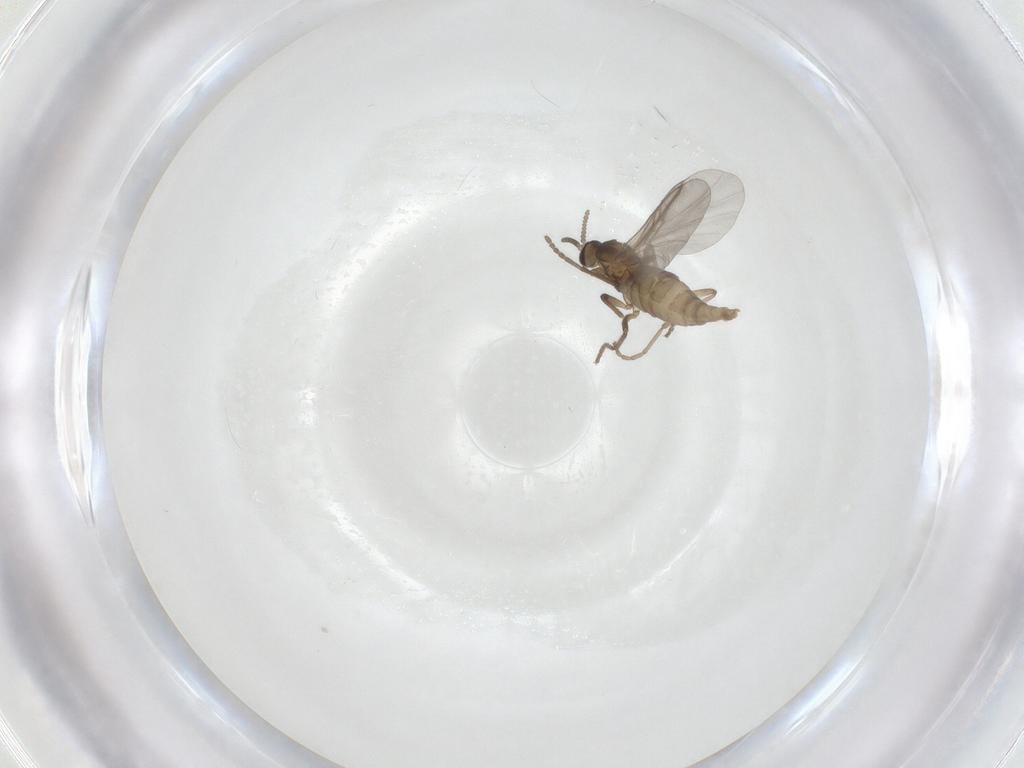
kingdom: Animalia
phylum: Arthropoda
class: Insecta
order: Diptera
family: Cecidomyiidae
